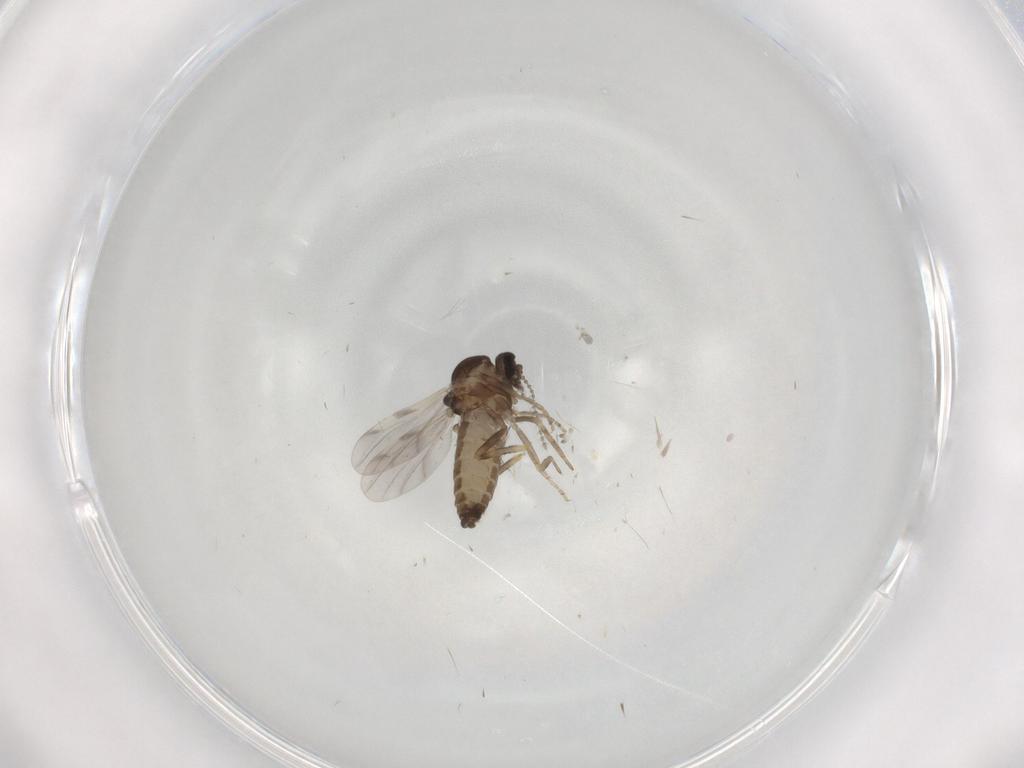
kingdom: Animalia
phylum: Arthropoda
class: Insecta
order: Diptera
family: Ceratopogonidae
